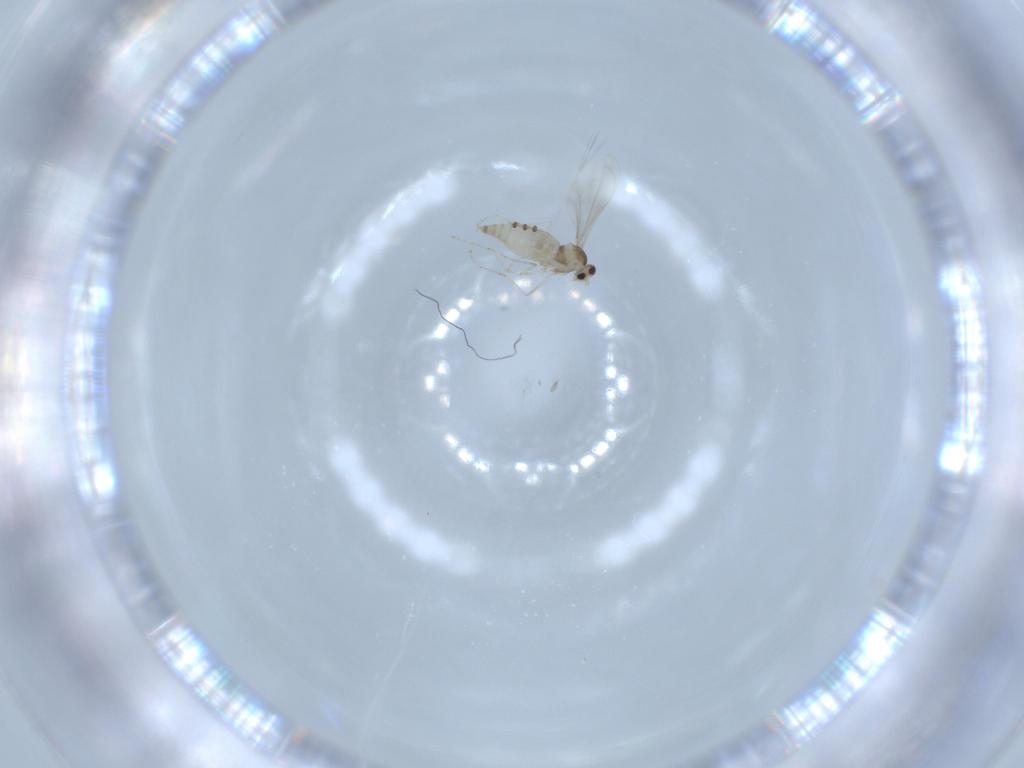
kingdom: Animalia
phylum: Arthropoda
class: Insecta
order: Diptera
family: Cecidomyiidae
